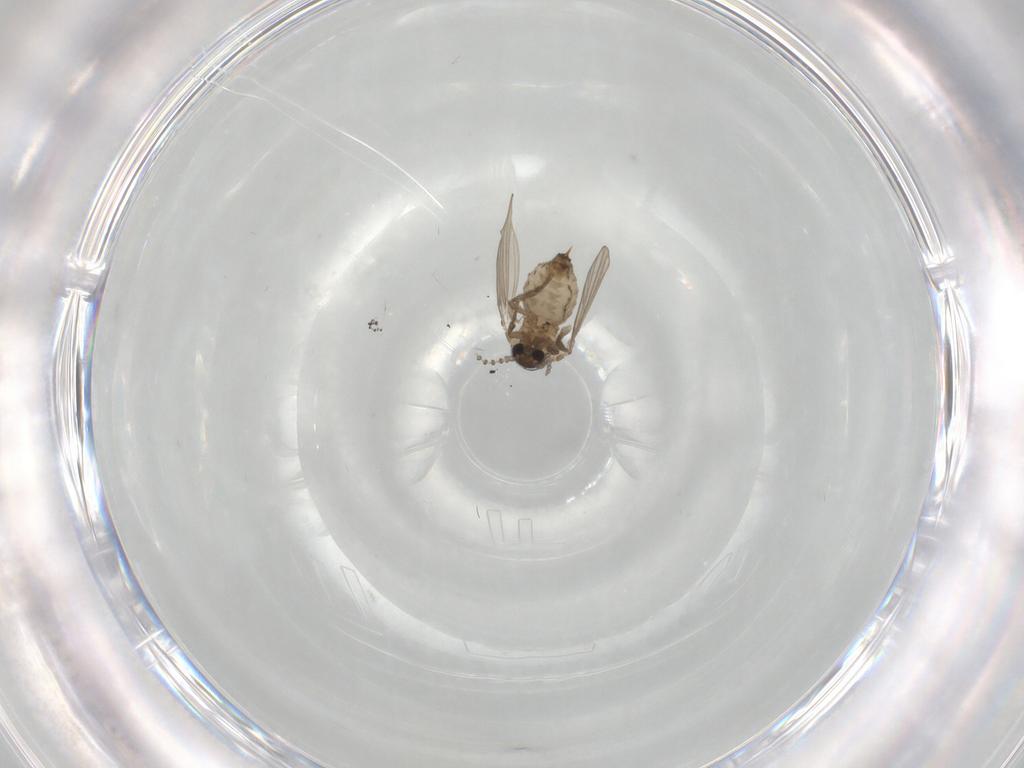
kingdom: Animalia
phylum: Arthropoda
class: Insecta
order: Diptera
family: Psychodidae
